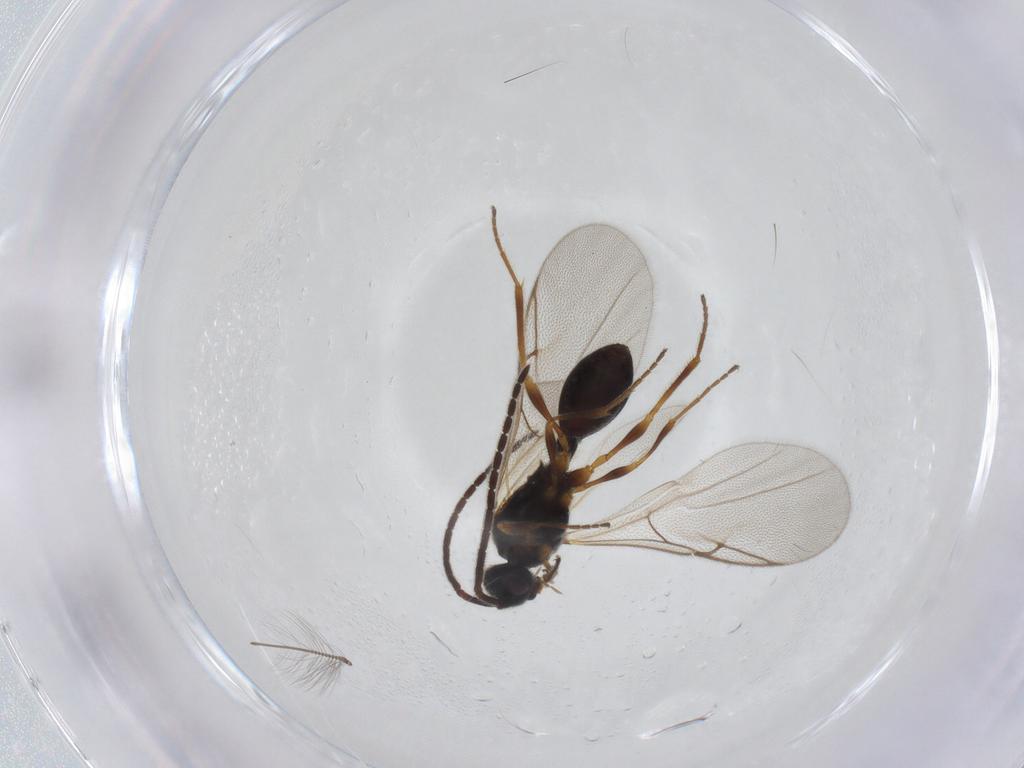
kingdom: Animalia
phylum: Arthropoda
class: Insecta
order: Hymenoptera
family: Diapriidae
